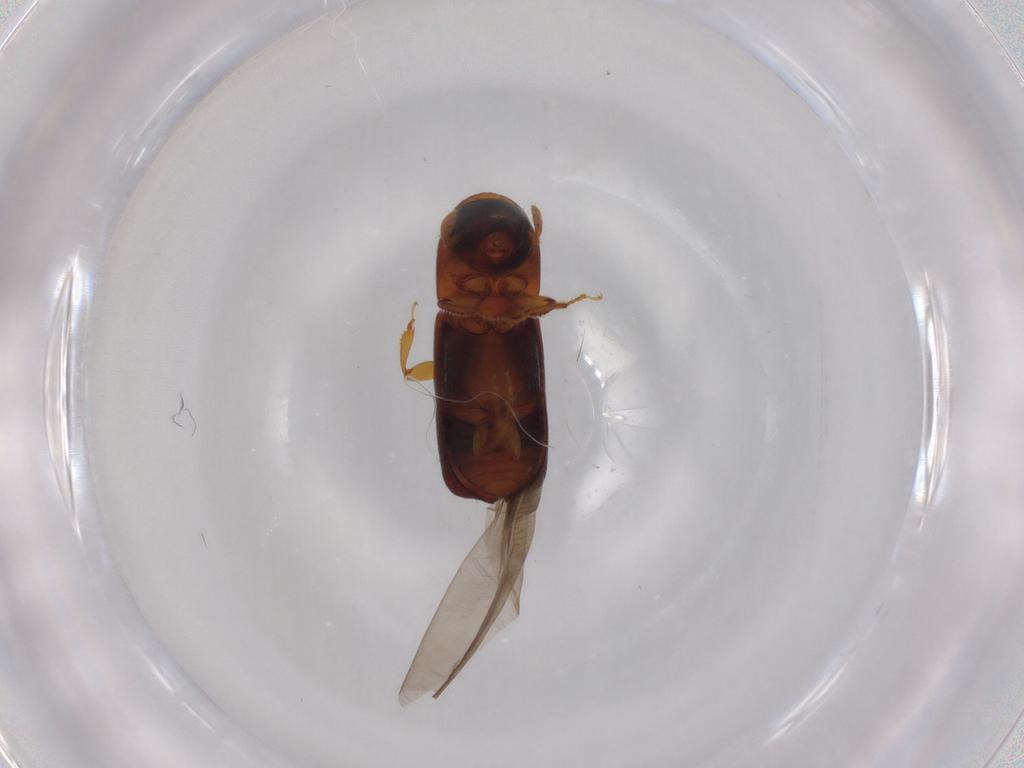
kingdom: Animalia
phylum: Arthropoda
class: Insecta
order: Coleoptera
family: Curculionidae
